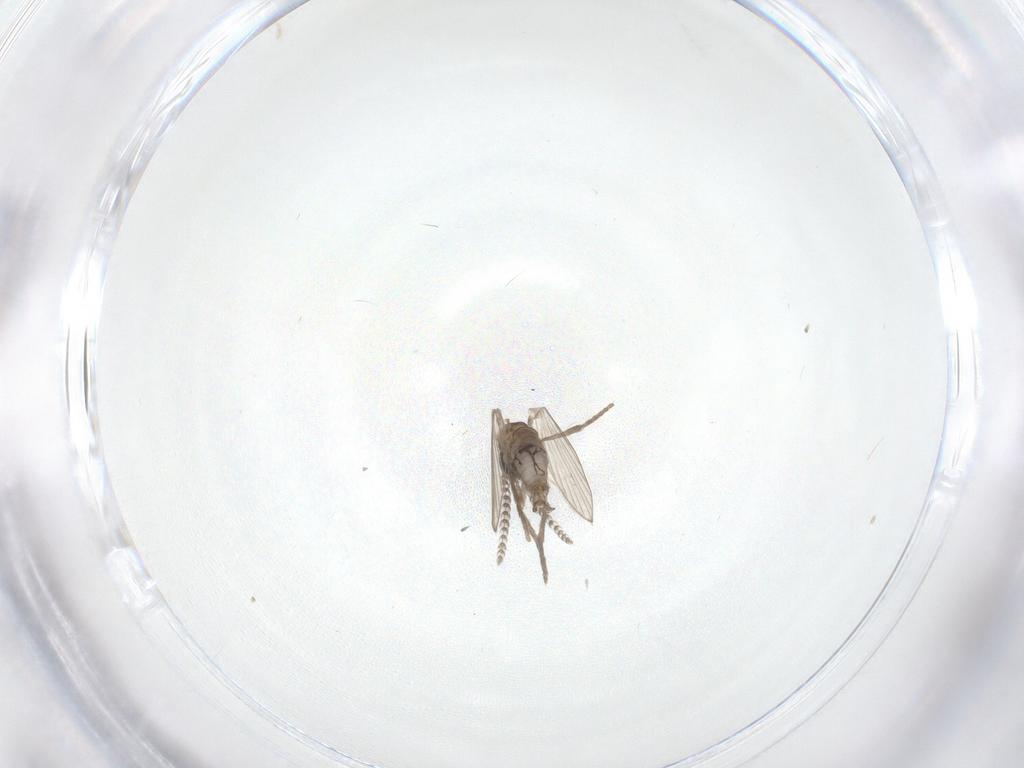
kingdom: Animalia
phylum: Arthropoda
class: Insecta
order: Diptera
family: Psychodidae
